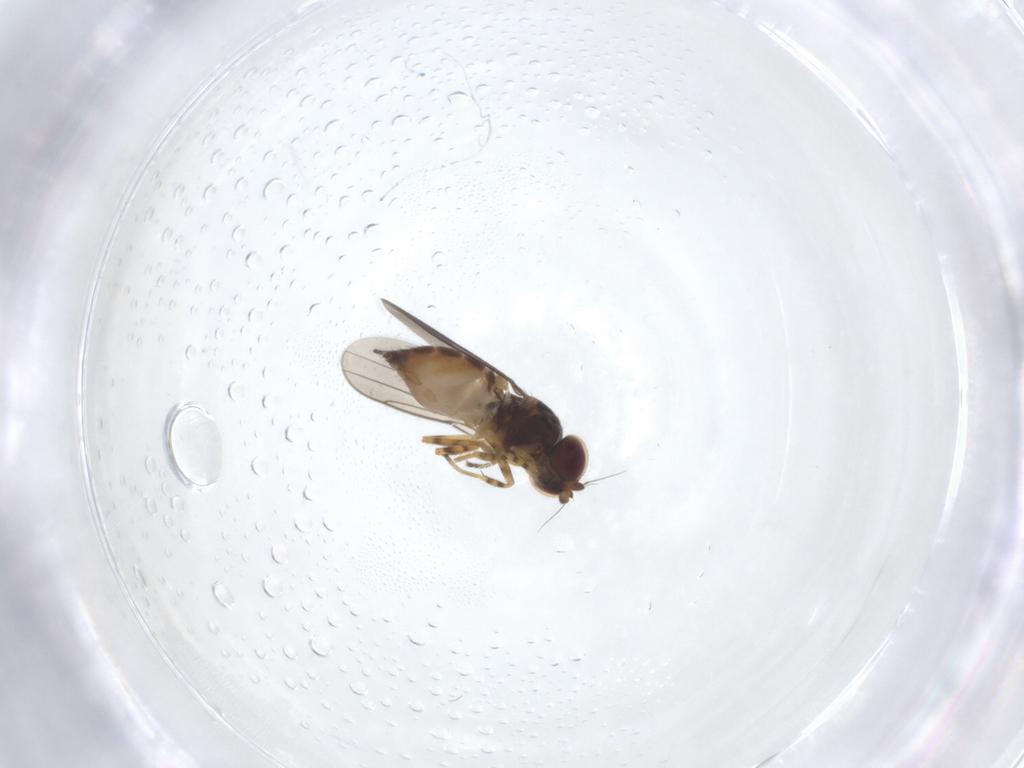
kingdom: Animalia
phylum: Arthropoda
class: Insecta
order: Diptera
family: Chloropidae
